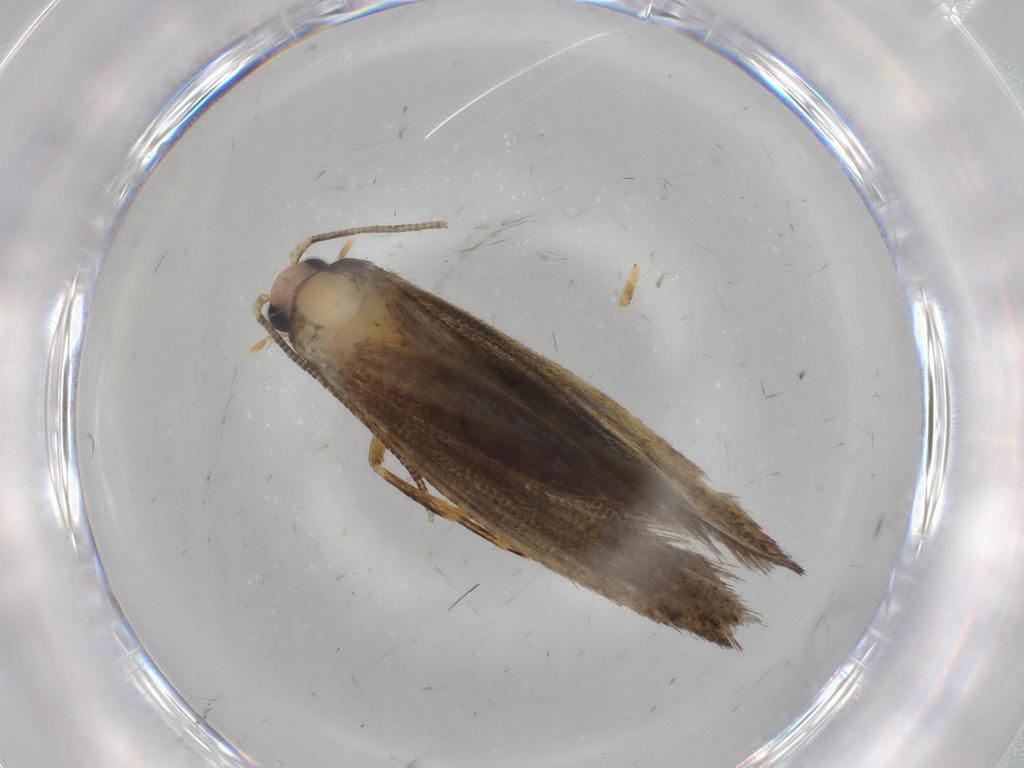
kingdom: Animalia
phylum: Arthropoda
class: Insecta
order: Lepidoptera
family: Tineidae
